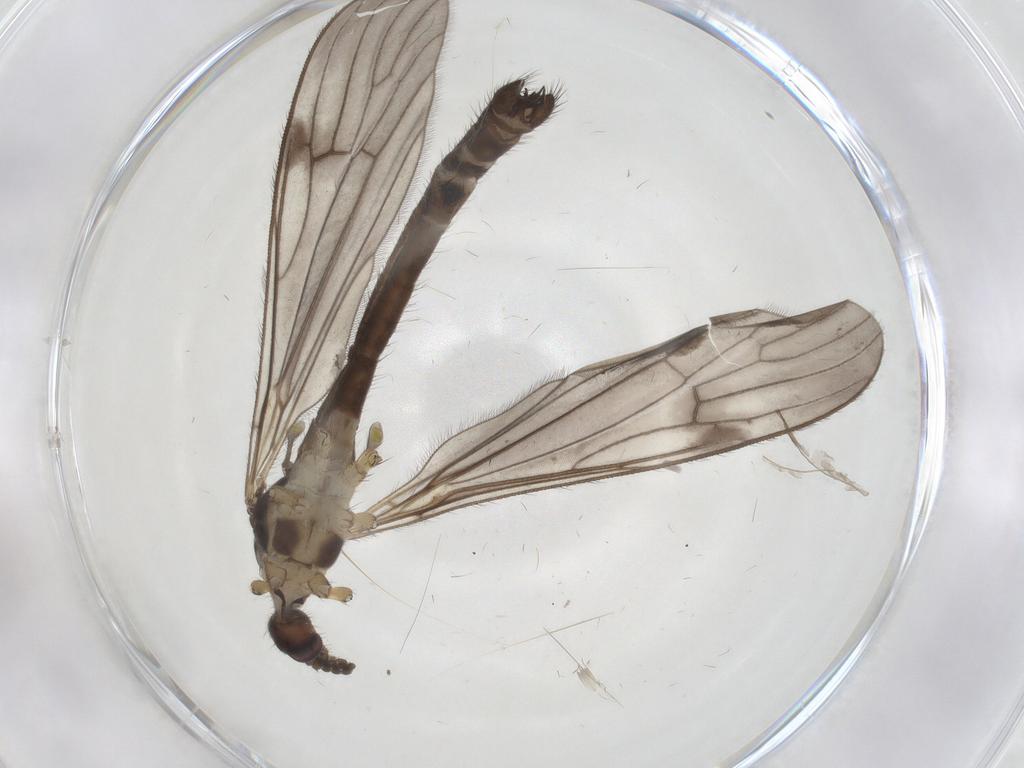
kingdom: Animalia
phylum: Arthropoda
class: Insecta
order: Diptera
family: Limoniidae
